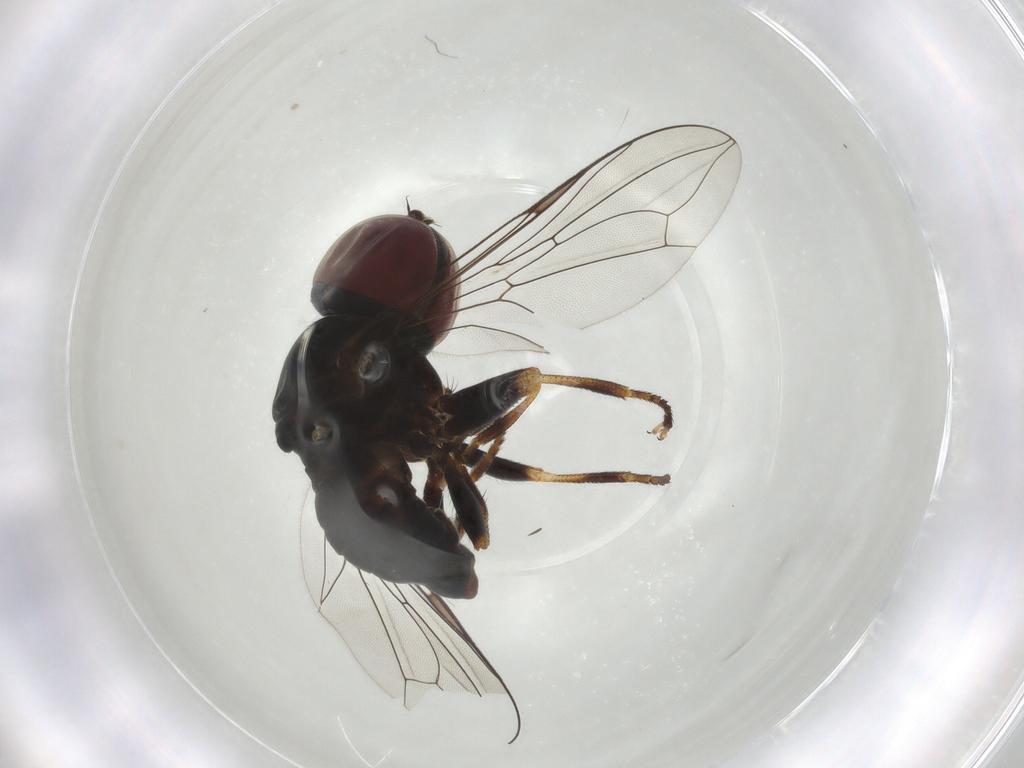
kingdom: Animalia
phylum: Arthropoda
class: Insecta
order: Diptera
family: Pipunculidae
